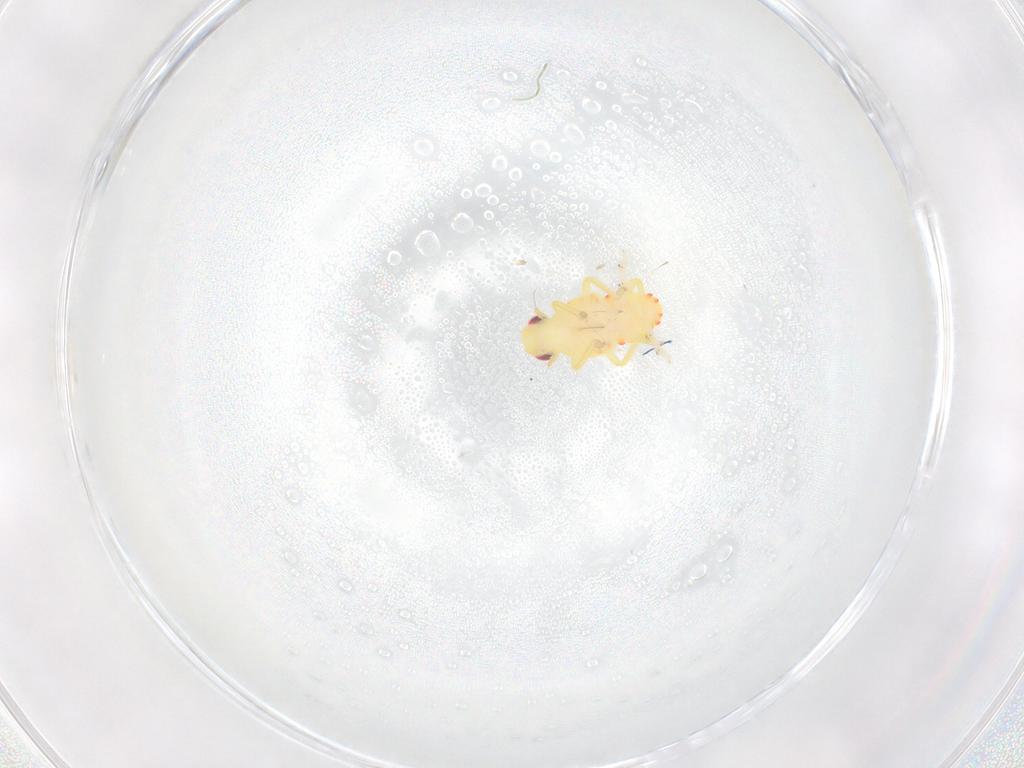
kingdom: Animalia
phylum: Arthropoda
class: Insecta
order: Hemiptera
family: Tropiduchidae
